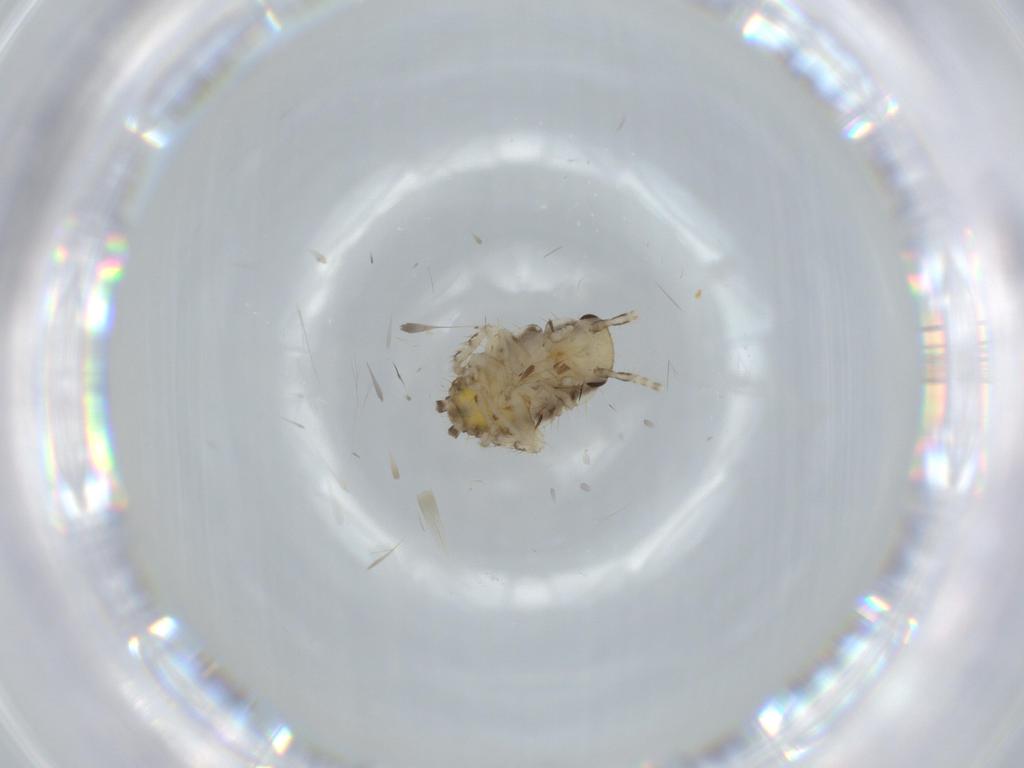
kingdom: Animalia
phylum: Arthropoda
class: Insecta
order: Blattodea
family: Ectobiidae
